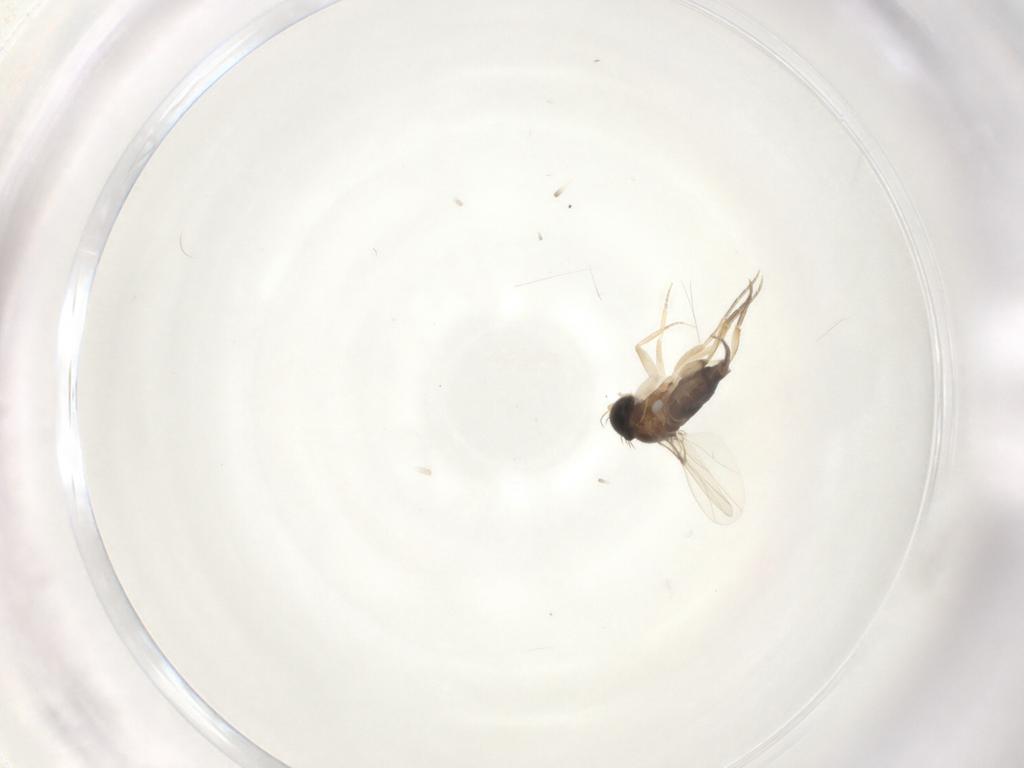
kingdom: Animalia
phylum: Arthropoda
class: Insecta
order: Diptera
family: Phoridae
